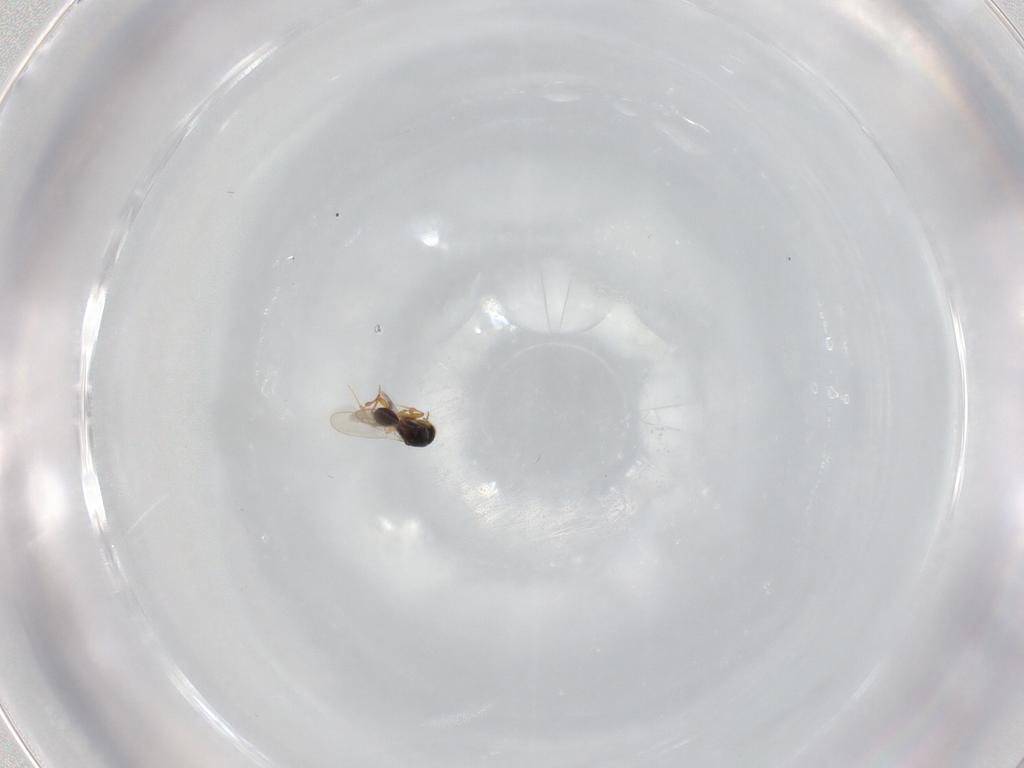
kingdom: Animalia
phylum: Arthropoda
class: Insecta
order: Hymenoptera
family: Platygastridae
